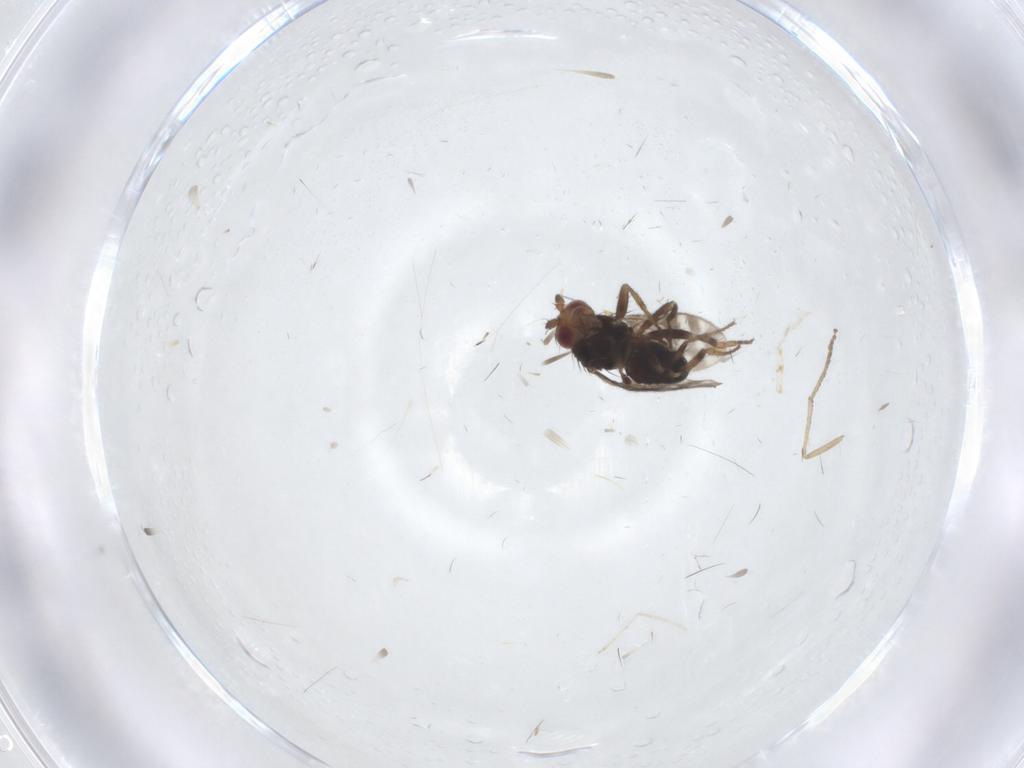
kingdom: Animalia
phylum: Arthropoda
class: Insecta
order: Diptera
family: Sphaeroceridae
